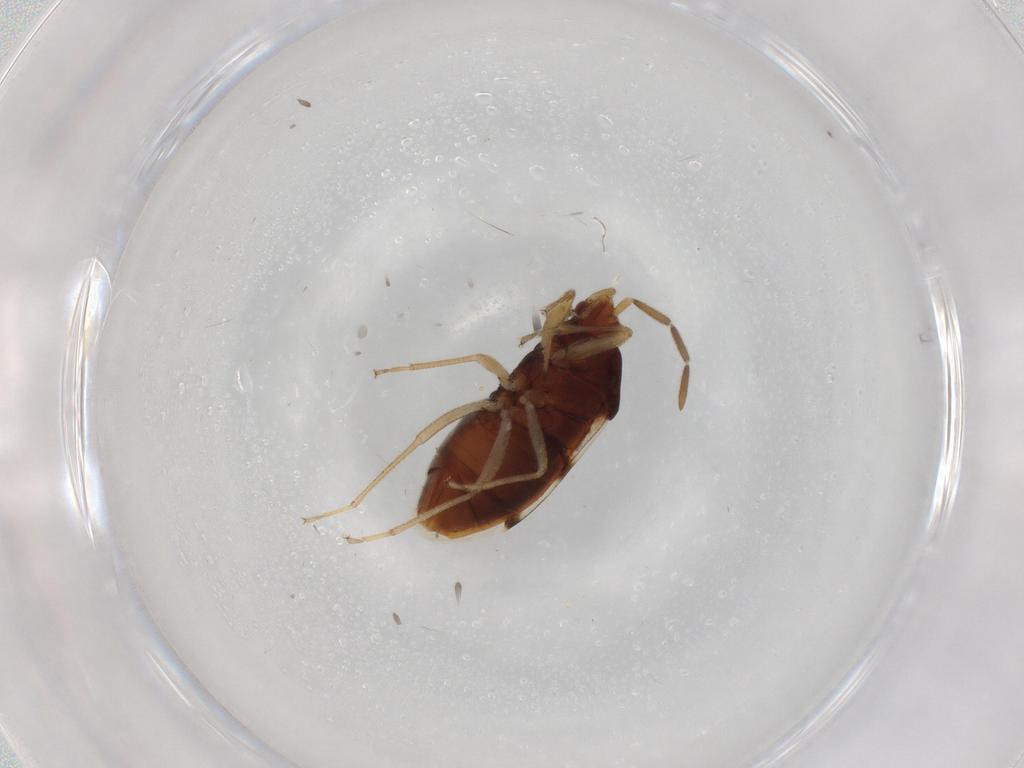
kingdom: Animalia
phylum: Arthropoda
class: Insecta
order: Hemiptera
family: Rhyparochromidae
